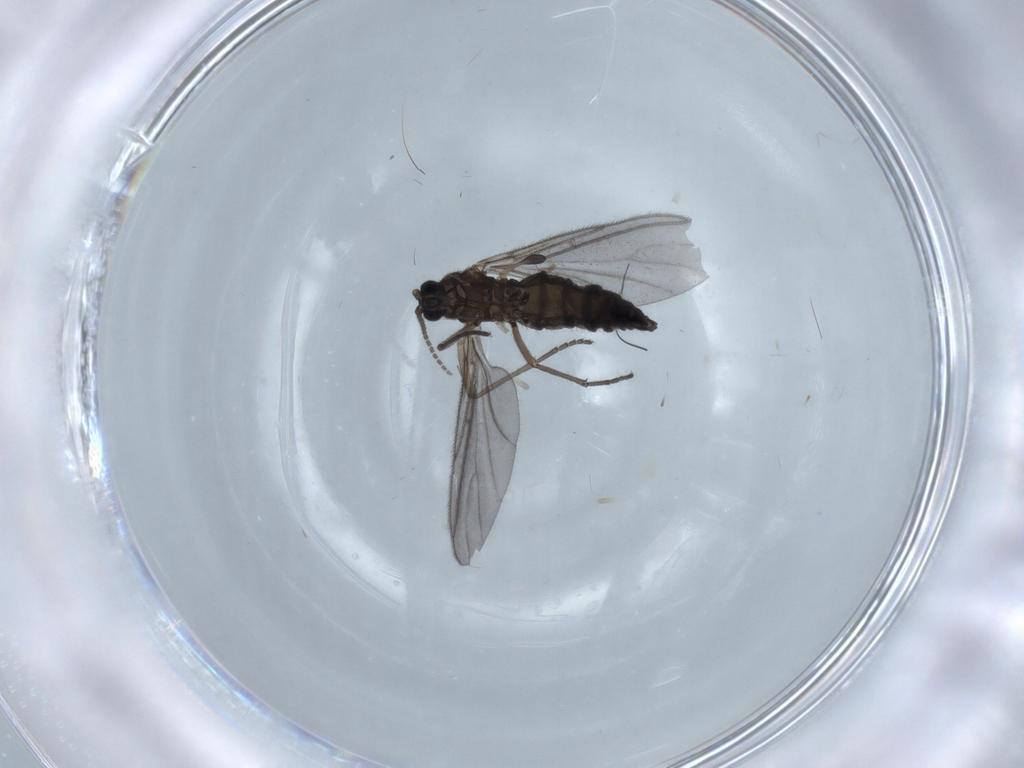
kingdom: Animalia
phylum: Arthropoda
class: Insecta
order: Diptera
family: Sciaridae
